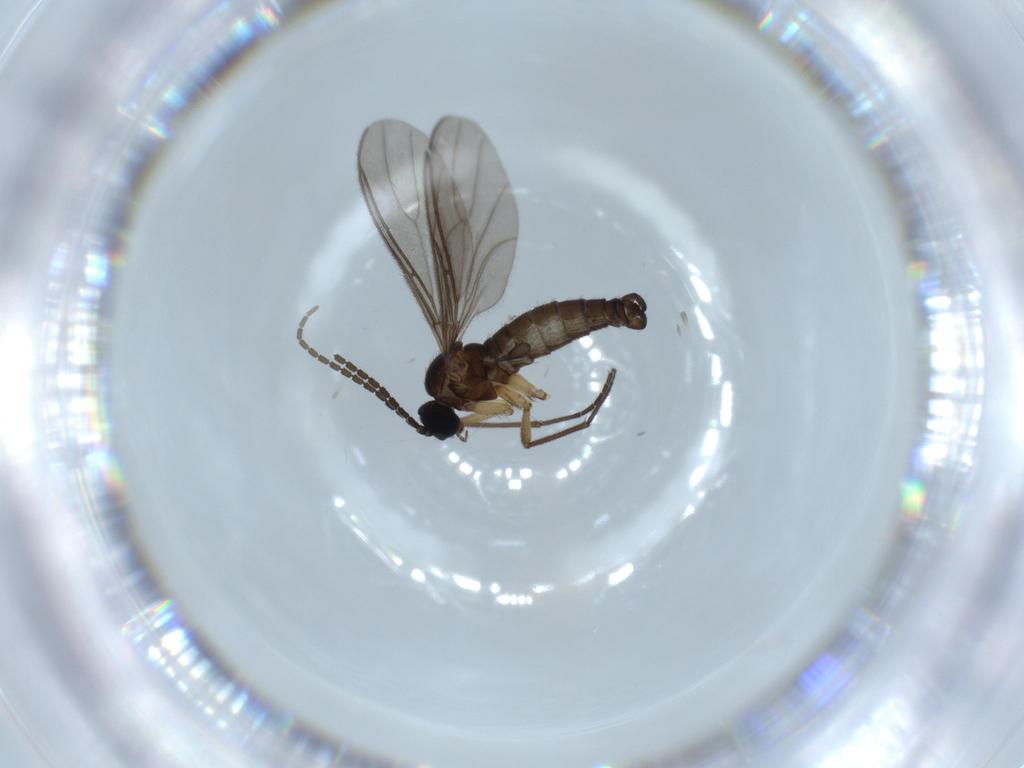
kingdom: Animalia
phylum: Arthropoda
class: Insecta
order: Diptera
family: Sciaridae
